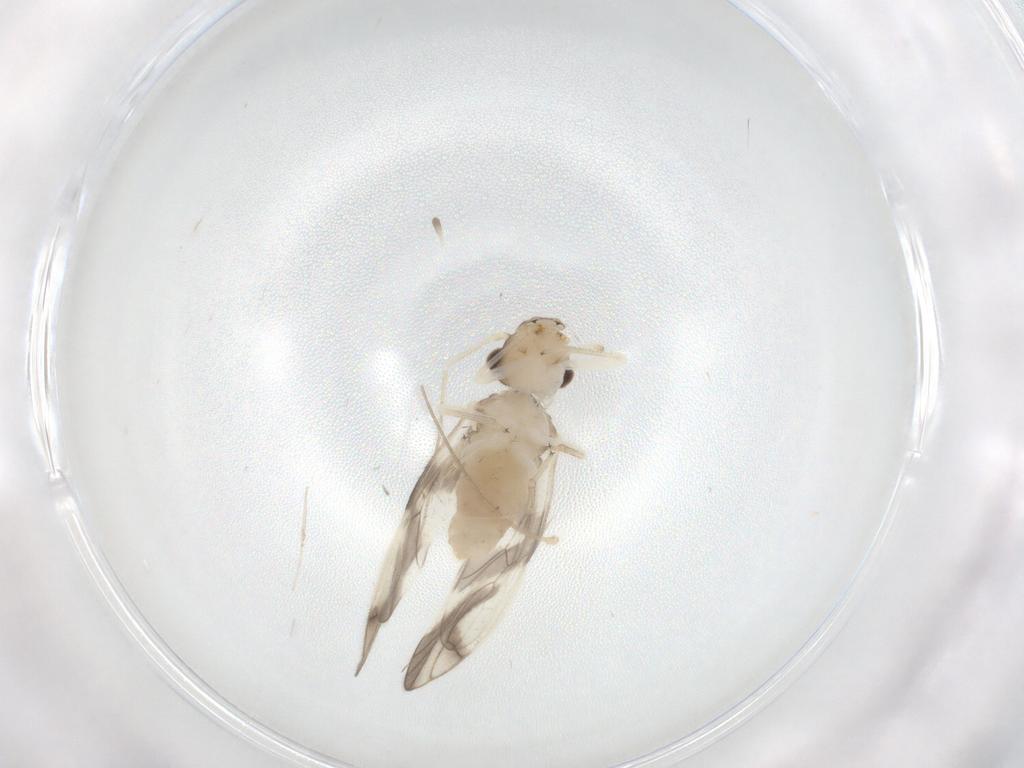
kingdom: Animalia
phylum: Arthropoda
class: Insecta
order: Psocodea
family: Caeciliusidae
